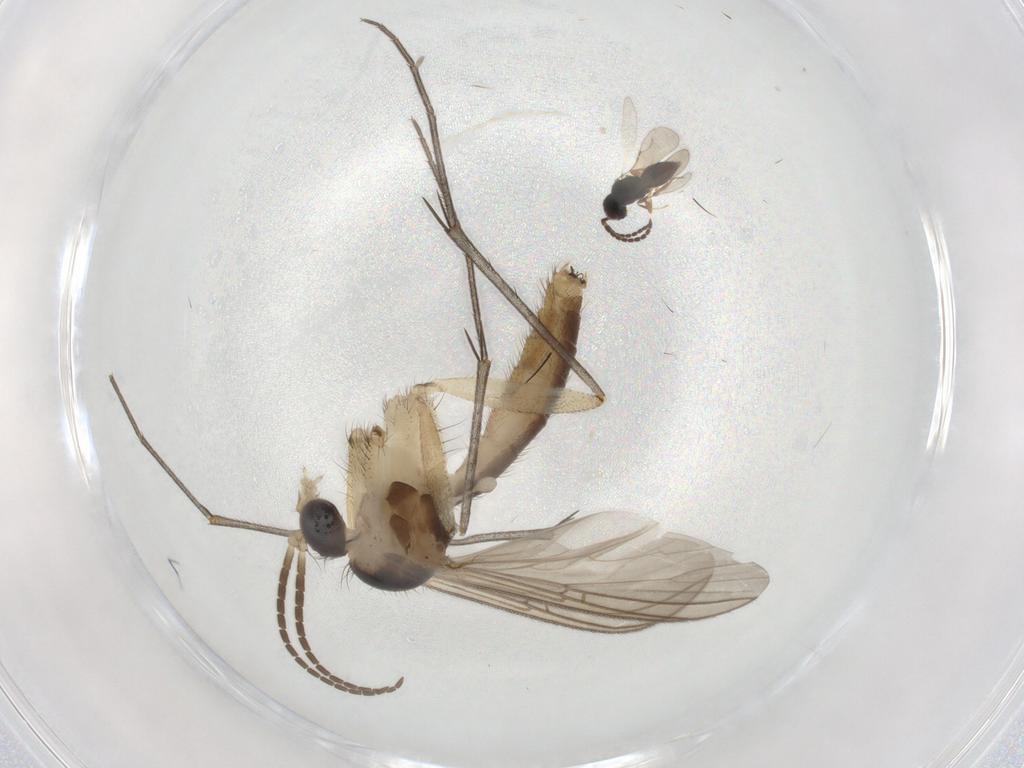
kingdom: Animalia
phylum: Arthropoda
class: Insecta
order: Diptera
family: Mycetophilidae
